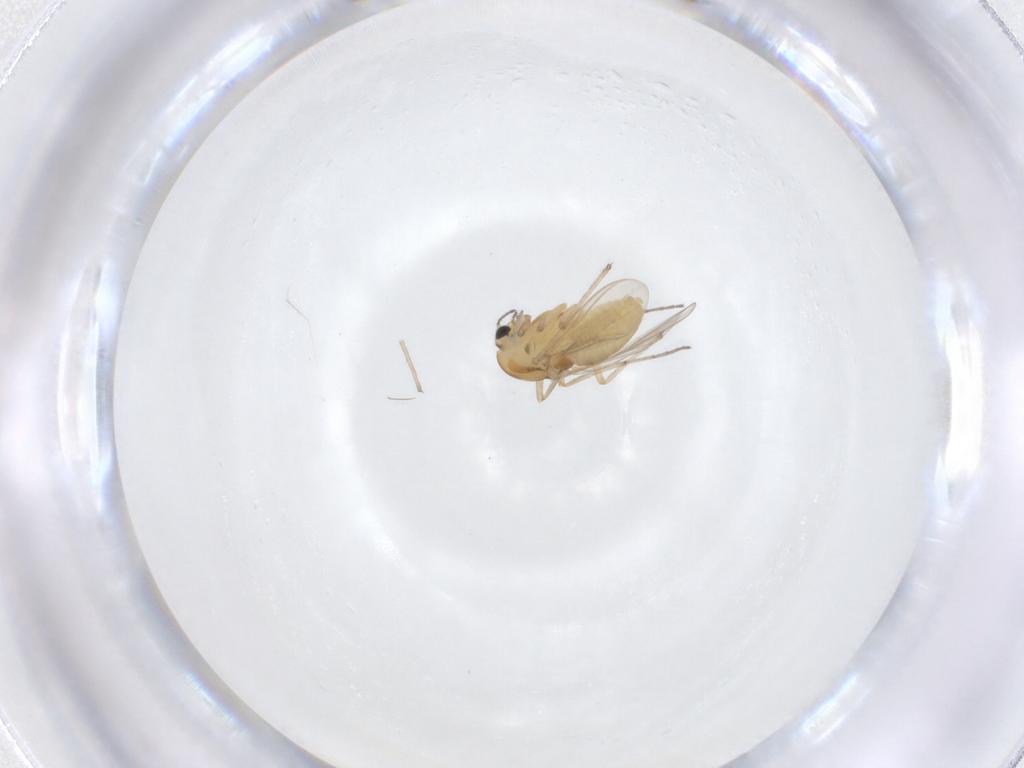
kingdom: Animalia
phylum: Arthropoda
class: Insecta
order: Diptera
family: Chironomidae
